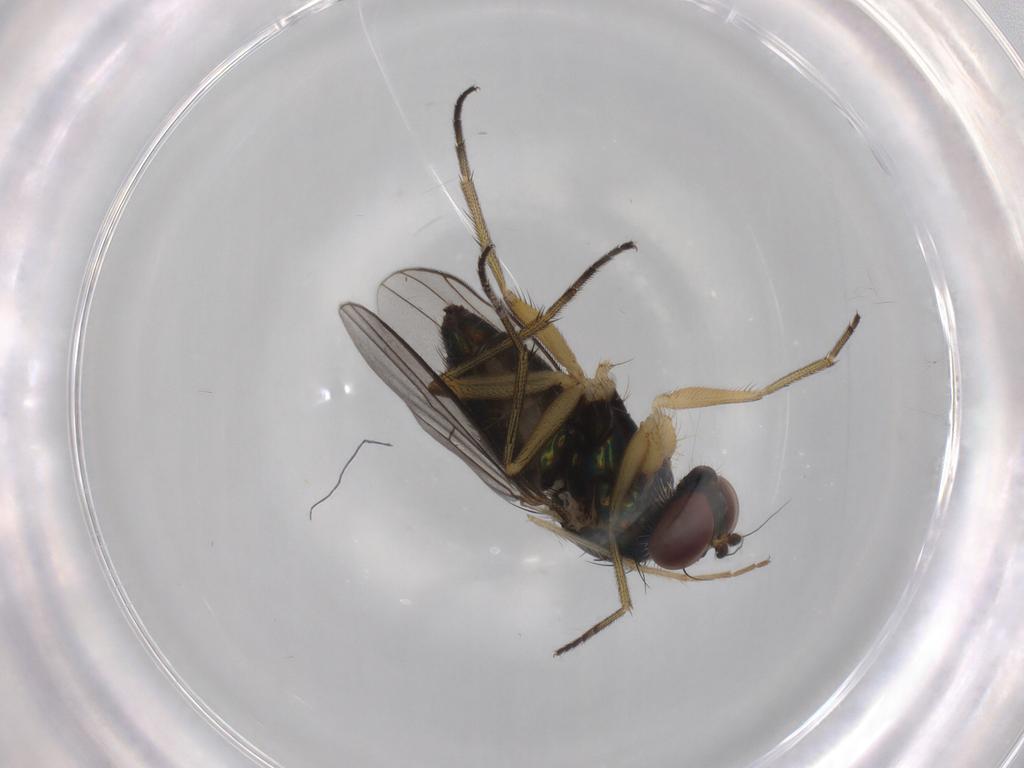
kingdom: Animalia
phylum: Arthropoda
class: Insecta
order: Diptera
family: Dolichopodidae
